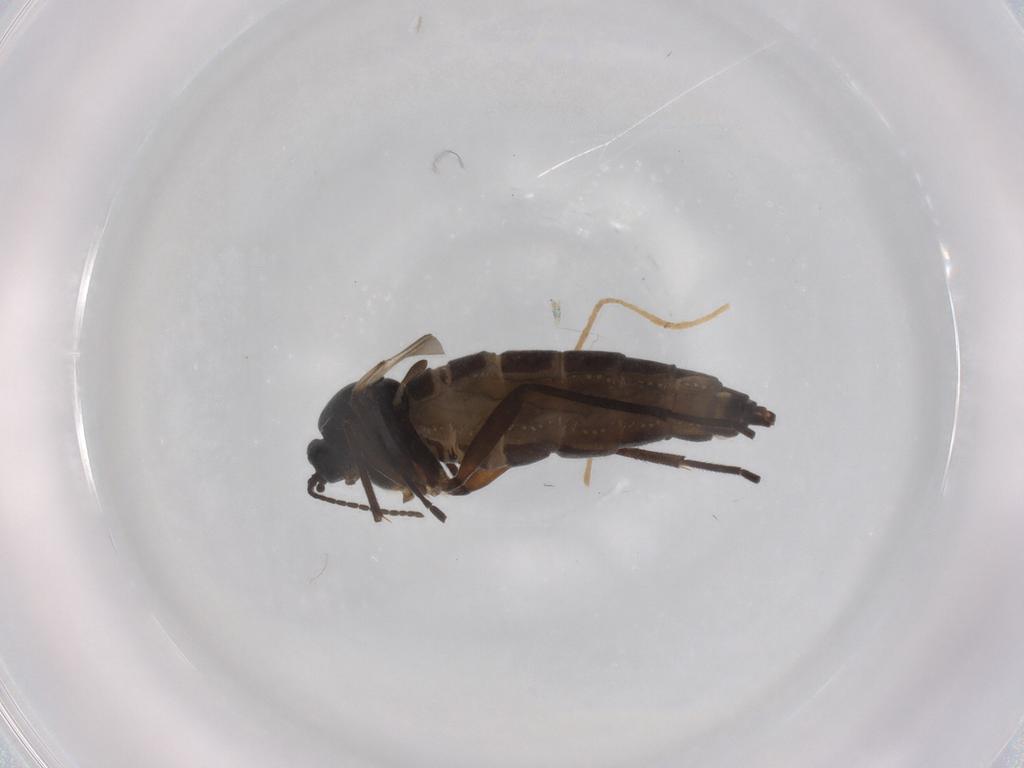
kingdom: Animalia
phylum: Arthropoda
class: Insecta
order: Diptera
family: Sciaridae
